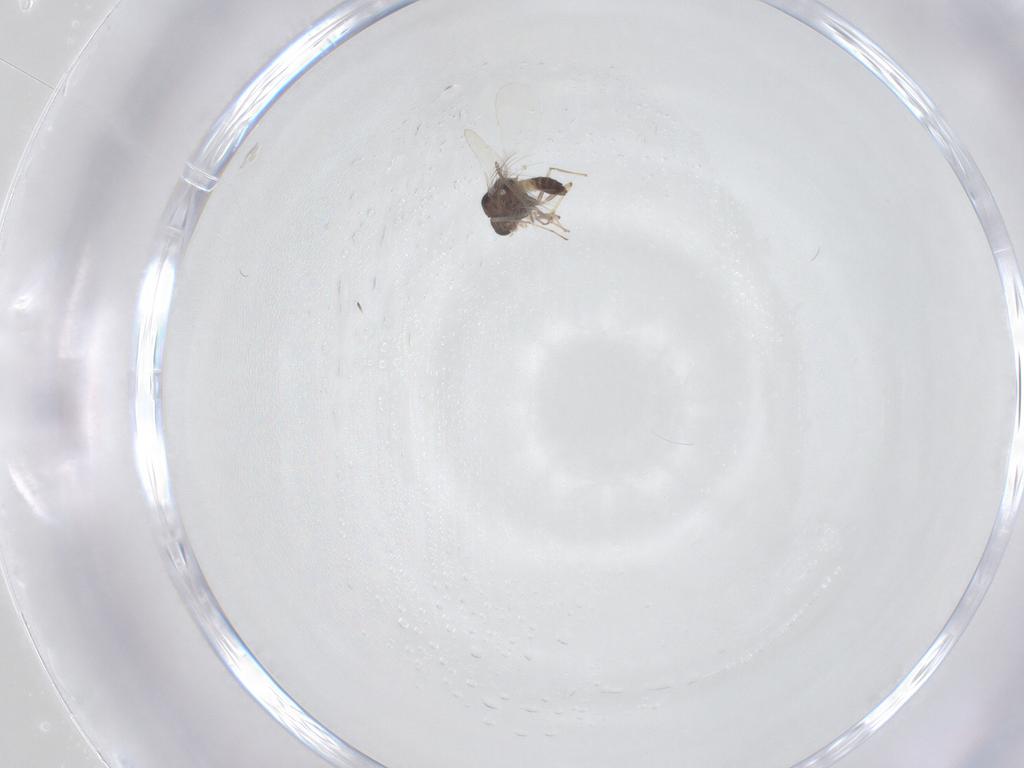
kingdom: Animalia
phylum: Arthropoda
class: Insecta
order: Diptera
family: Chironomidae
